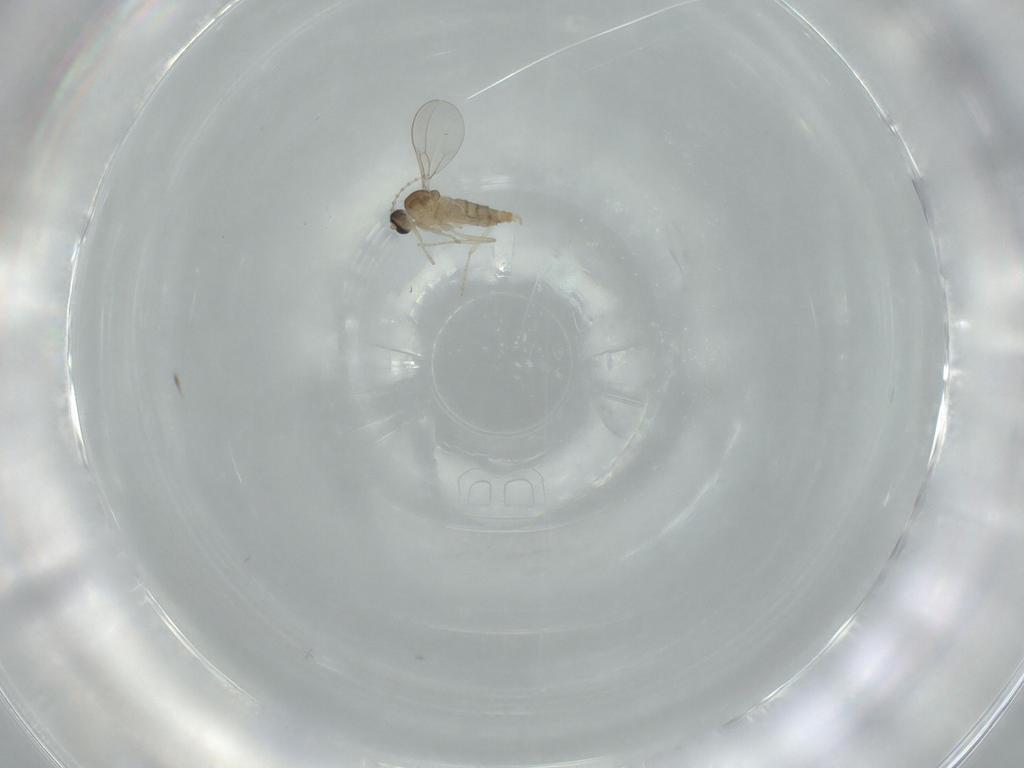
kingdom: Animalia
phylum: Arthropoda
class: Insecta
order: Diptera
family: Cecidomyiidae
